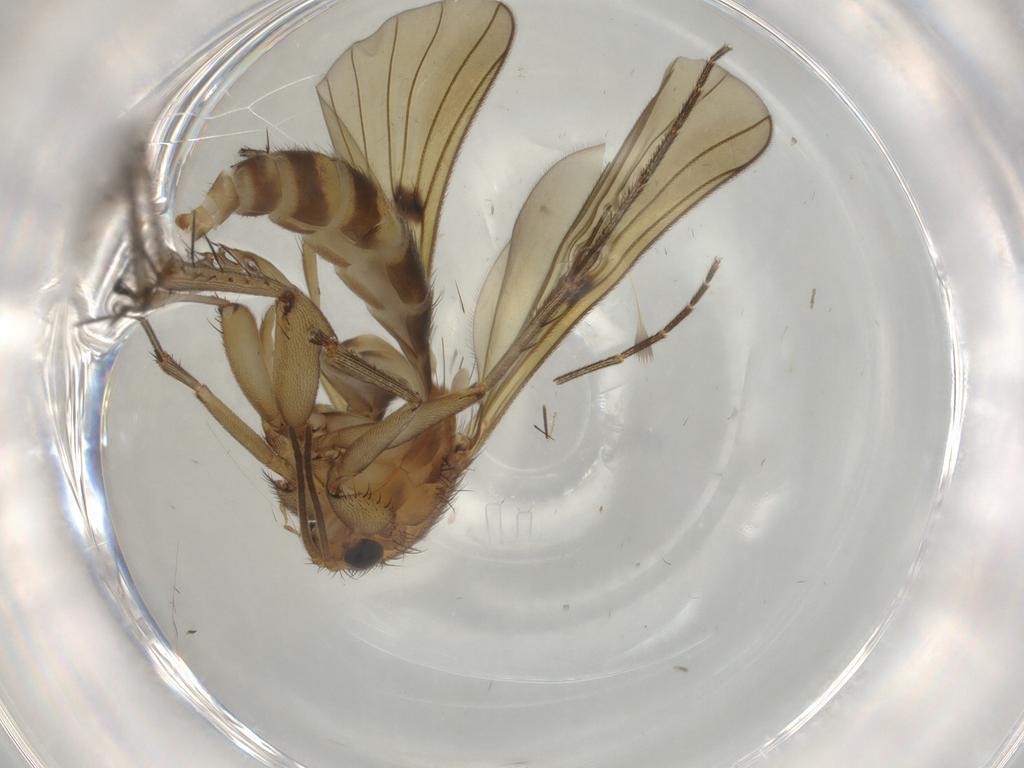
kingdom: Animalia
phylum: Arthropoda
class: Insecta
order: Diptera
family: Mycetophilidae
